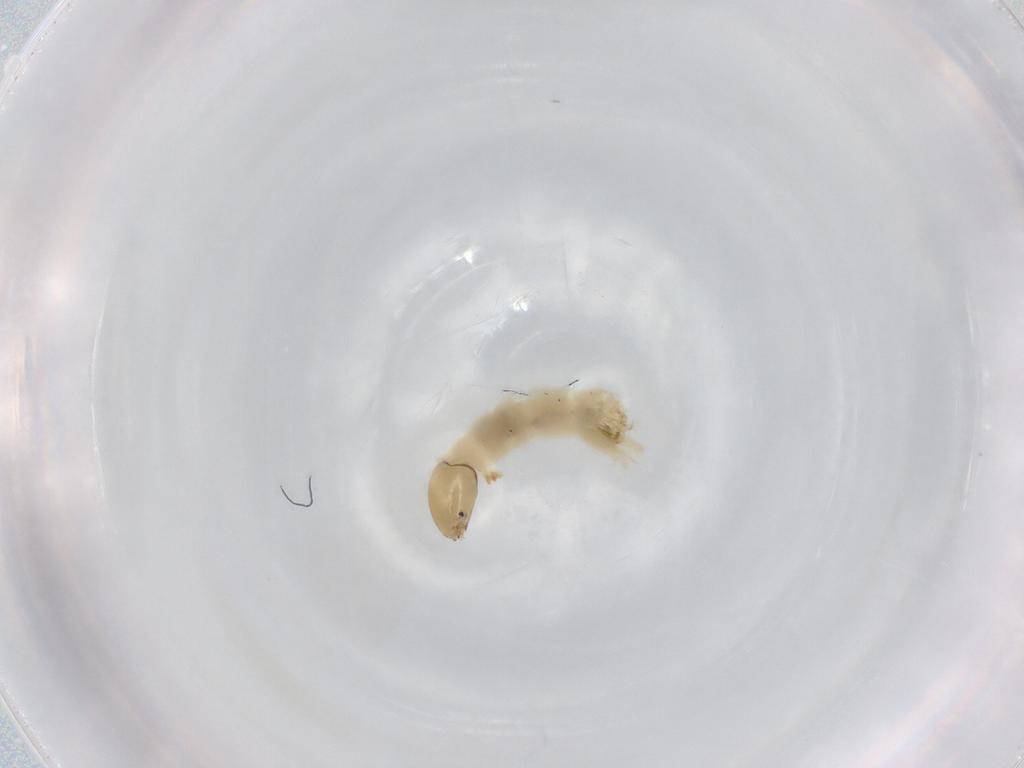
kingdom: Animalia
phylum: Arthropoda
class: Insecta
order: Diptera
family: Chironomidae
